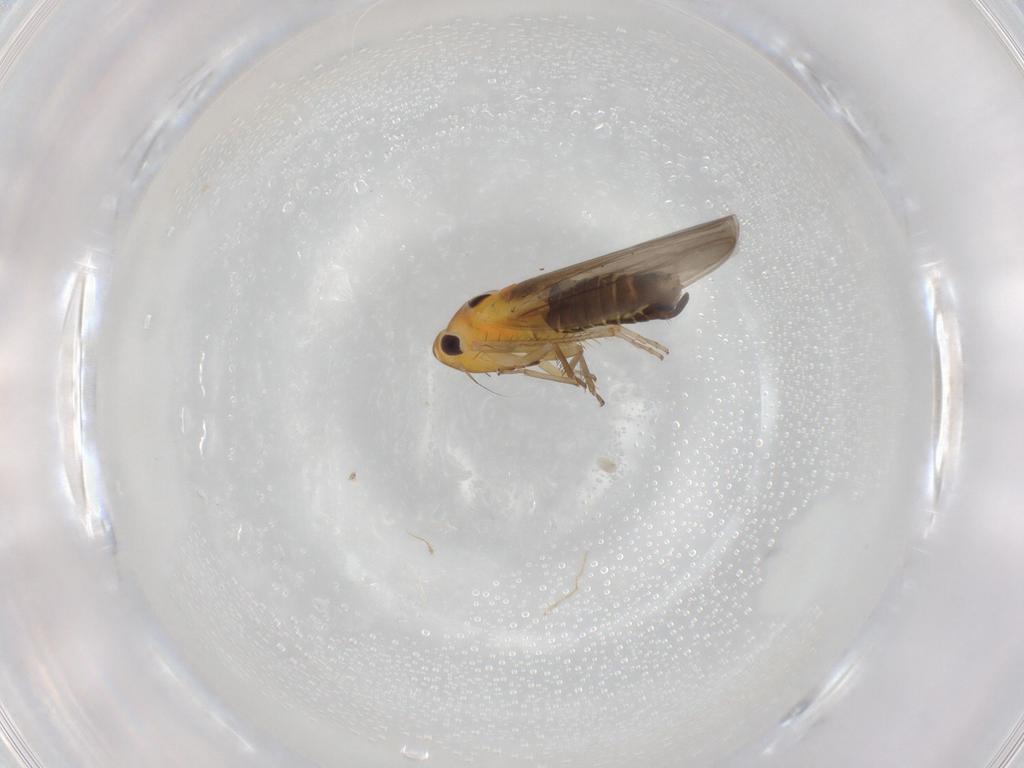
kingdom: Animalia
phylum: Arthropoda
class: Insecta
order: Hemiptera
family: Cicadellidae
